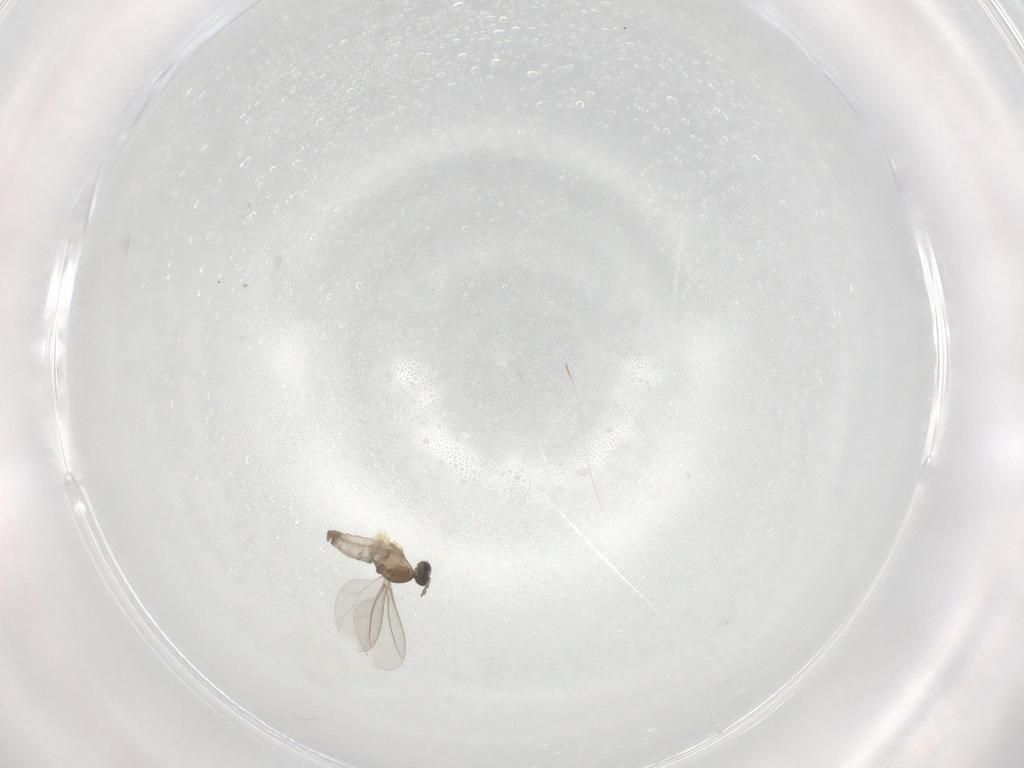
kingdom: Animalia
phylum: Arthropoda
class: Insecta
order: Diptera
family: Cecidomyiidae
